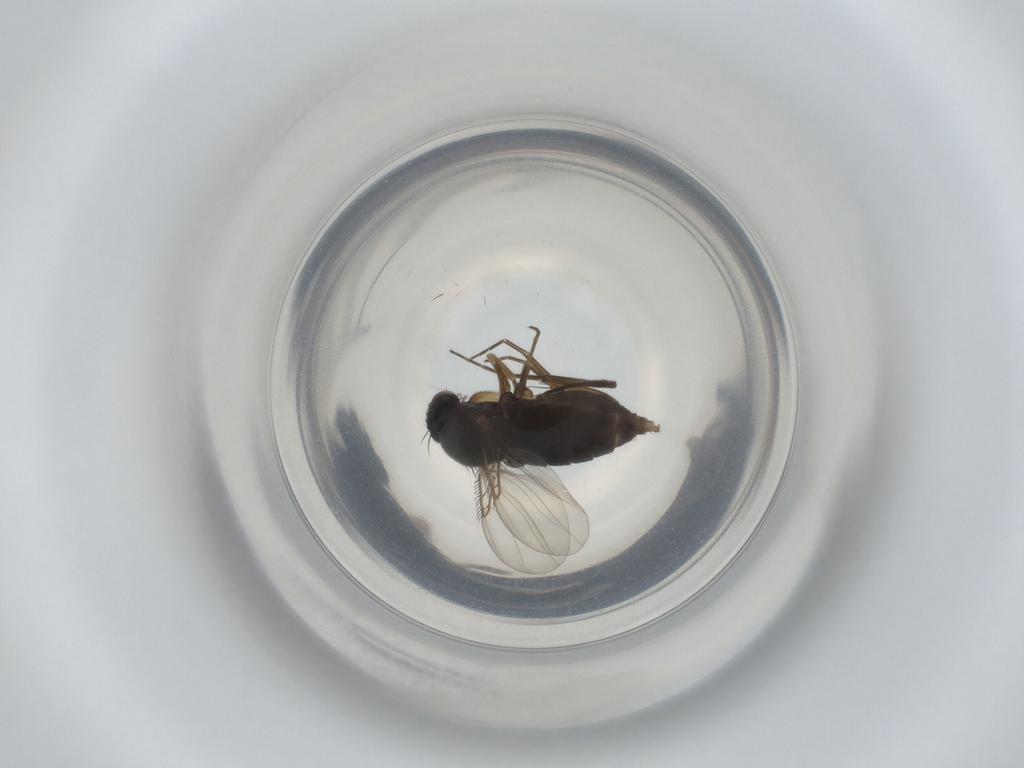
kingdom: Animalia
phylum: Arthropoda
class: Insecta
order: Diptera
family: Phoridae
